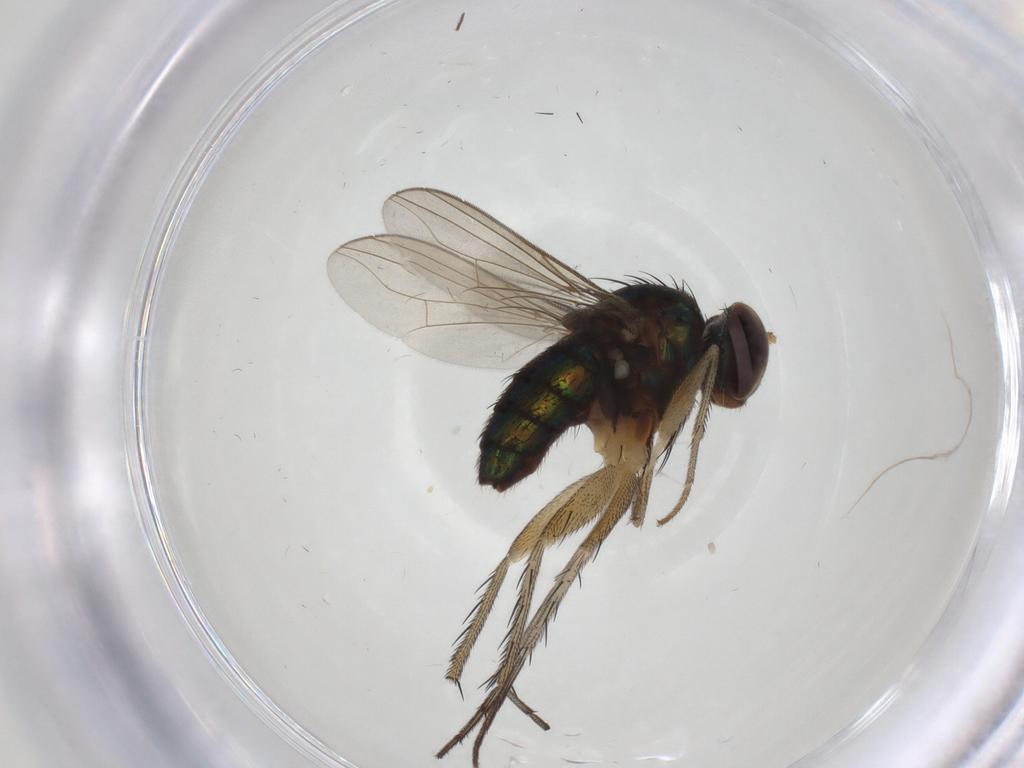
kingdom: Animalia
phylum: Arthropoda
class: Insecta
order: Diptera
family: Dolichopodidae
